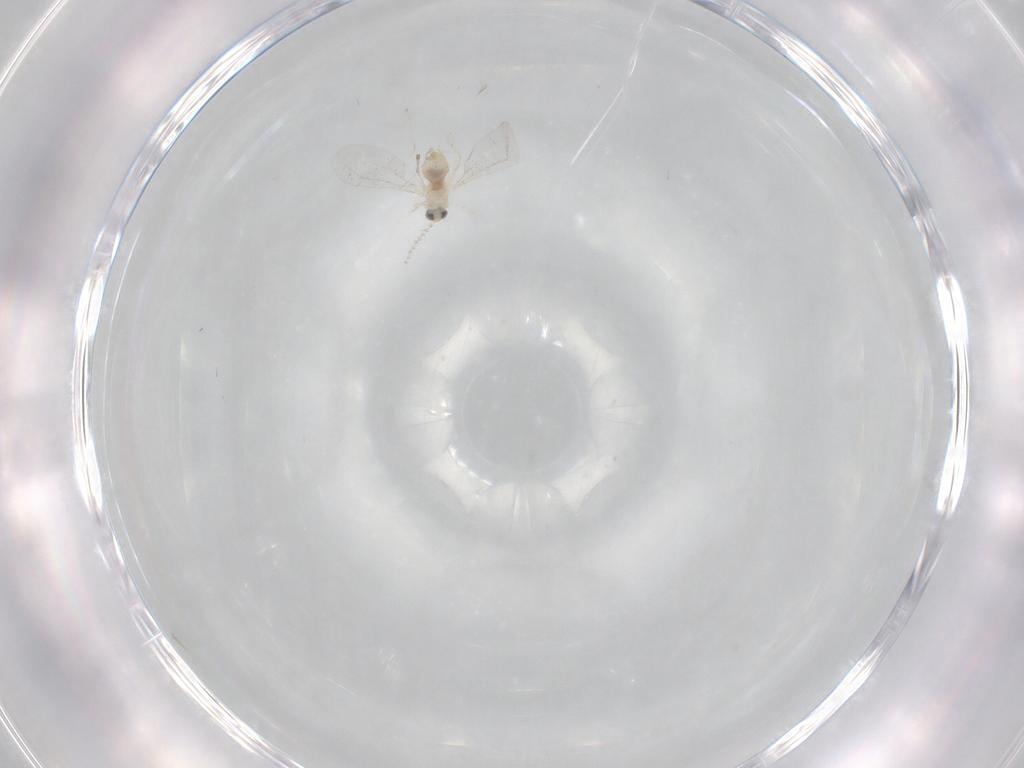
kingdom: Animalia
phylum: Arthropoda
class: Insecta
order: Diptera
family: Cecidomyiidae
